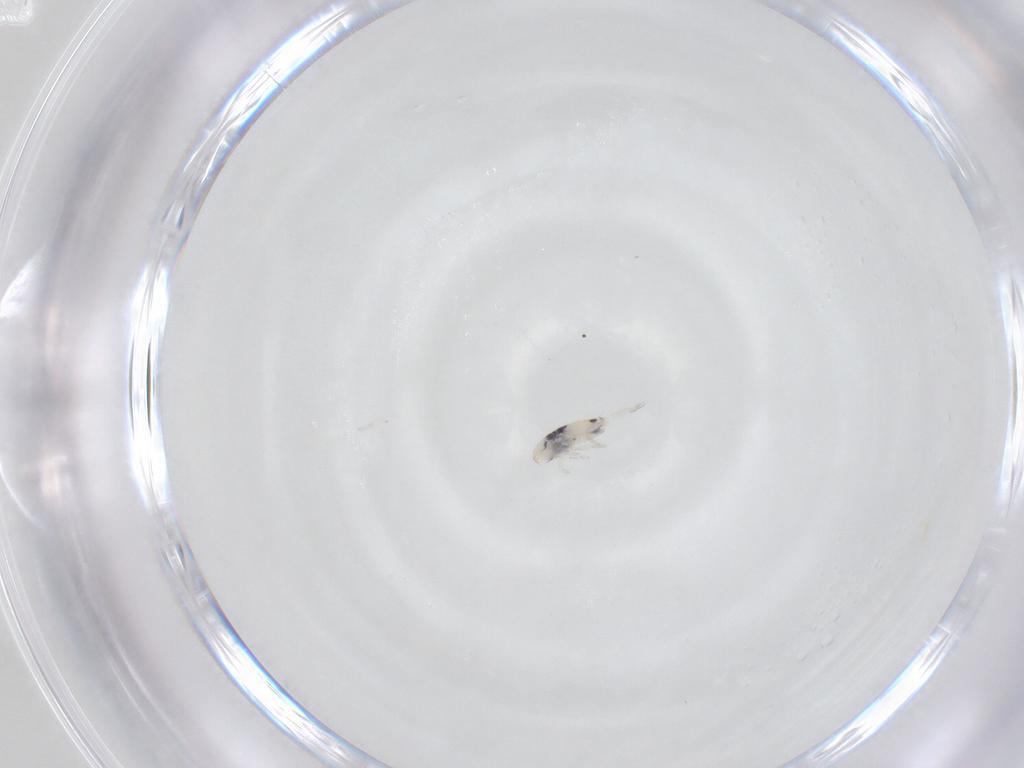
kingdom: Animalia
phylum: Arthropoda
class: Collembola
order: Entomobryomorpha
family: Entomobryidae
